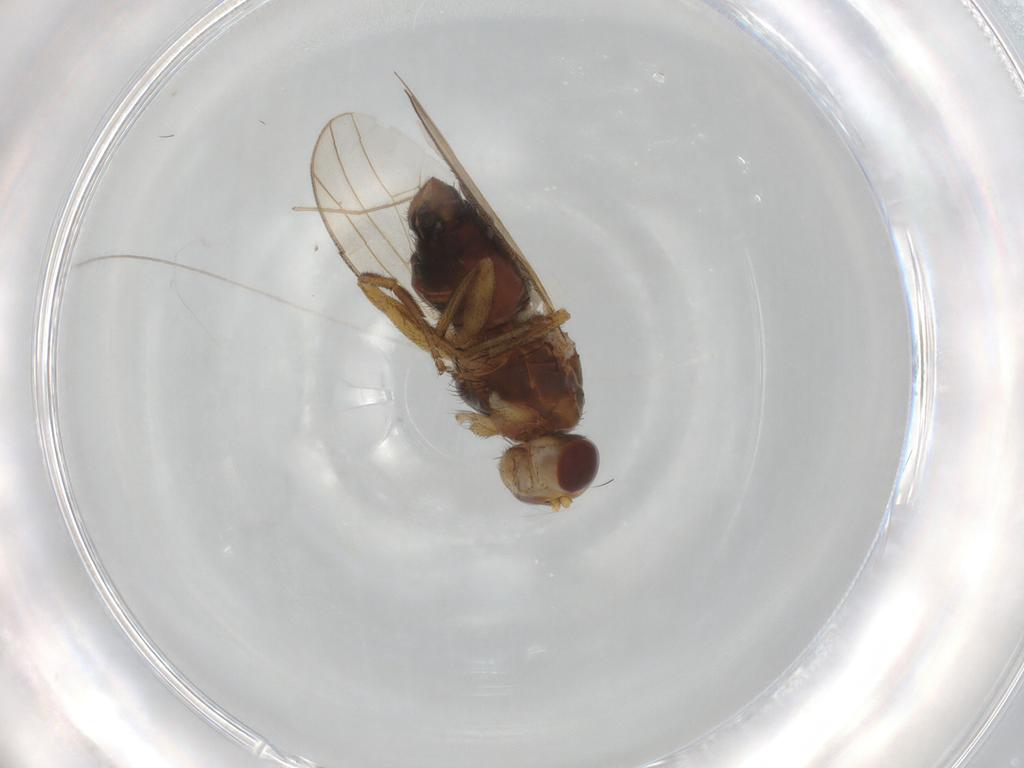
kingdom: Animalia
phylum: Arthropoda
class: Insecta
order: Diptera
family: Heleomyzidae
